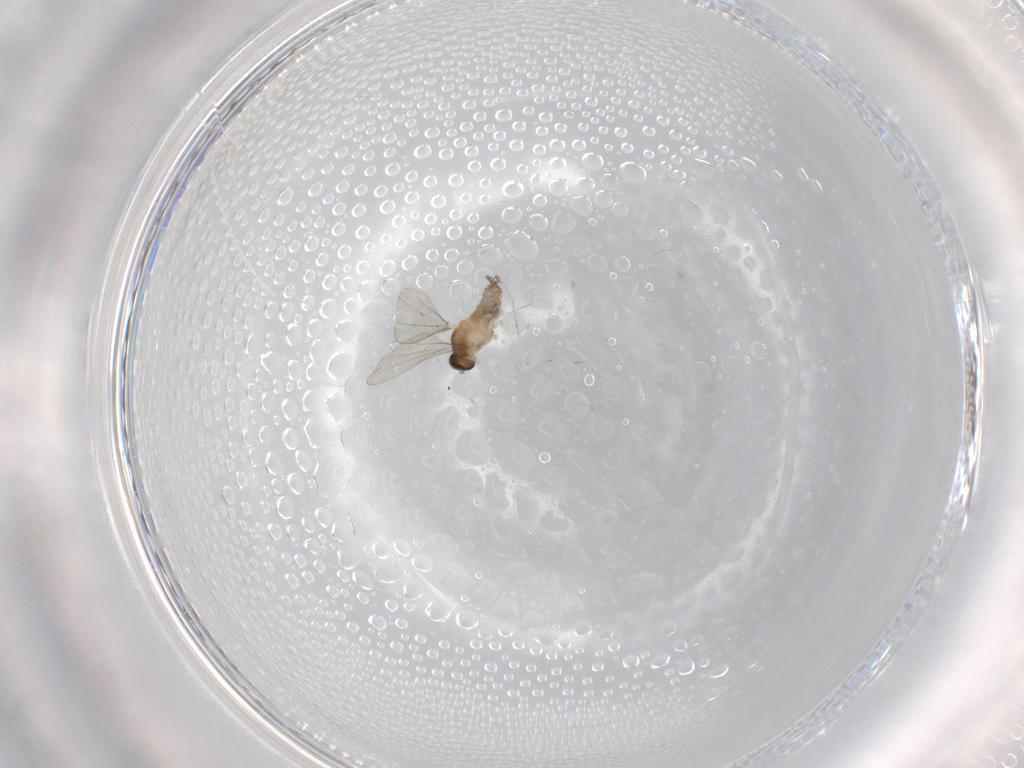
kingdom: Animalia
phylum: Arthropoda
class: Insecta
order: Diptera
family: Cecidomyiidae
